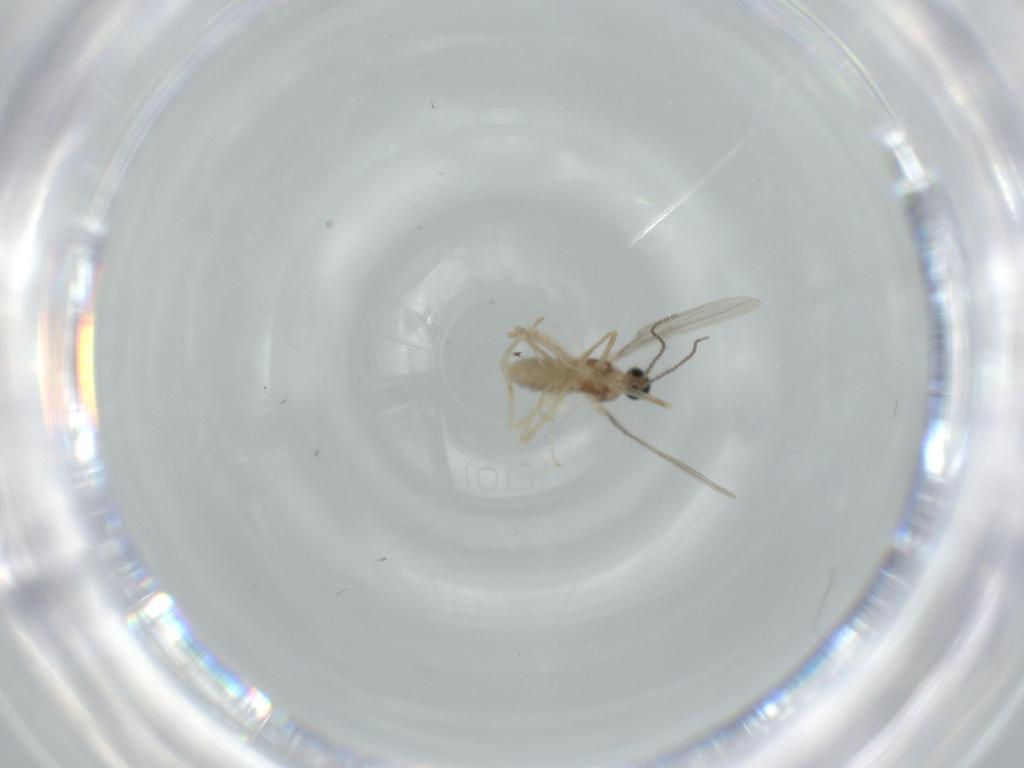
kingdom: Animalia
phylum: Arthropoda
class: Insecta
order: Diptera
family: Cecidomyiidae
